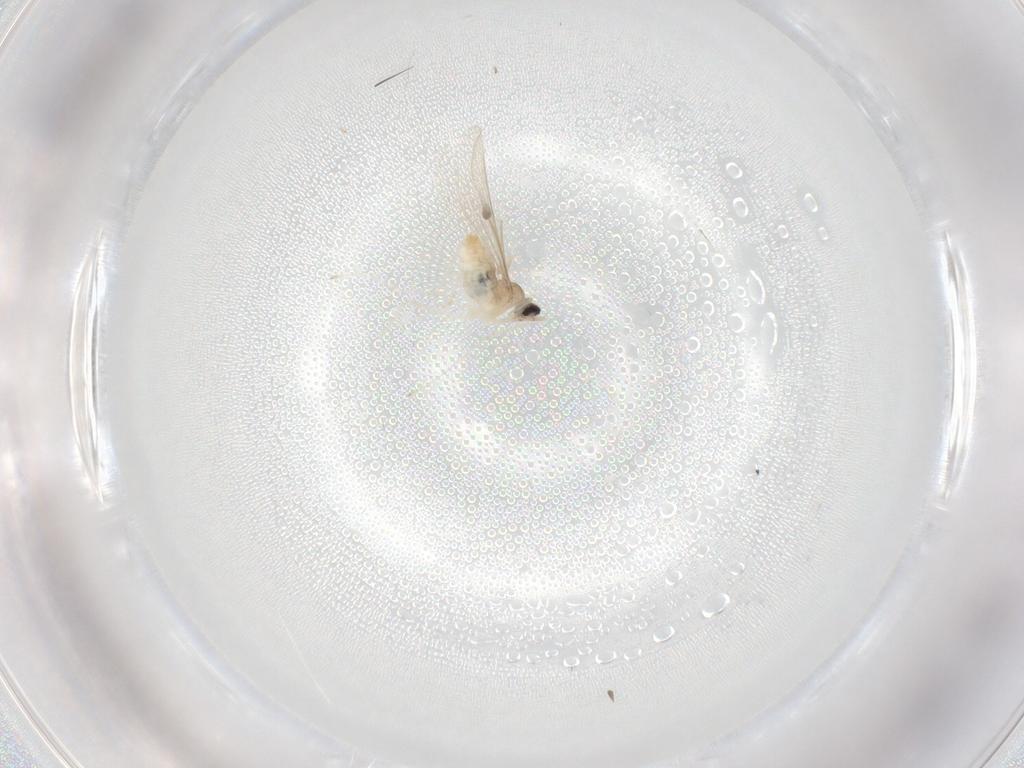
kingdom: Animalia
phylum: Arthropoda
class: Insecta
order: Diptera
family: Cecidomyiidae
